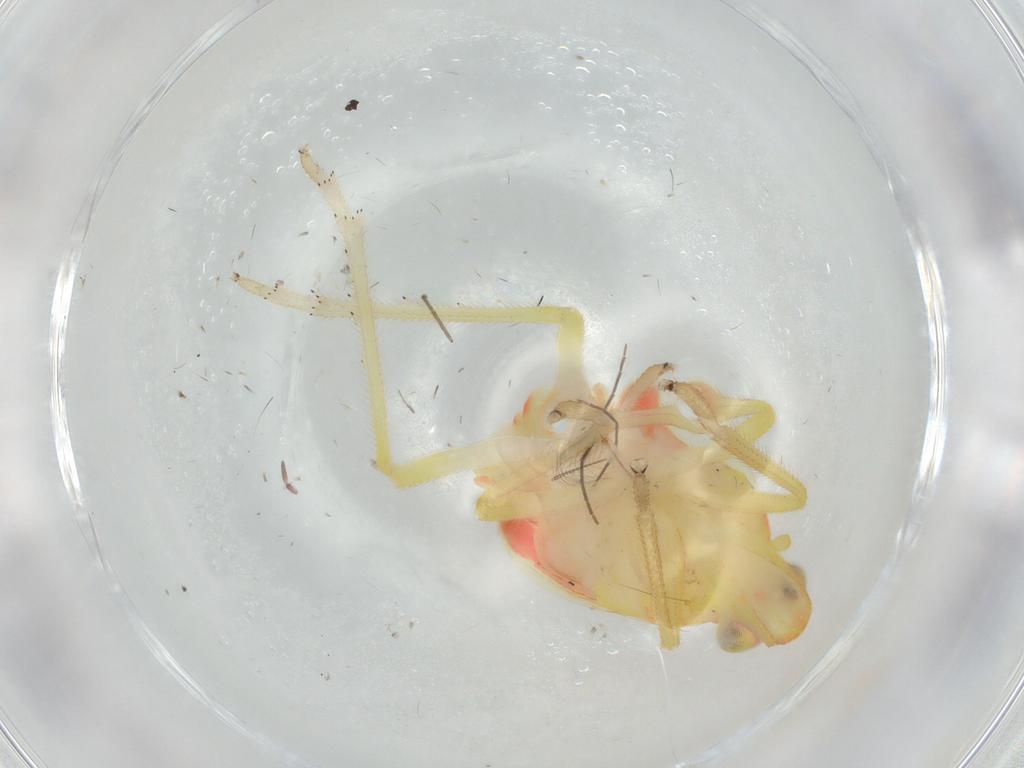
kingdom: Animalia
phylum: Arthropoda
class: Insecta
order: Hemiptera
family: Tropiduchidae
